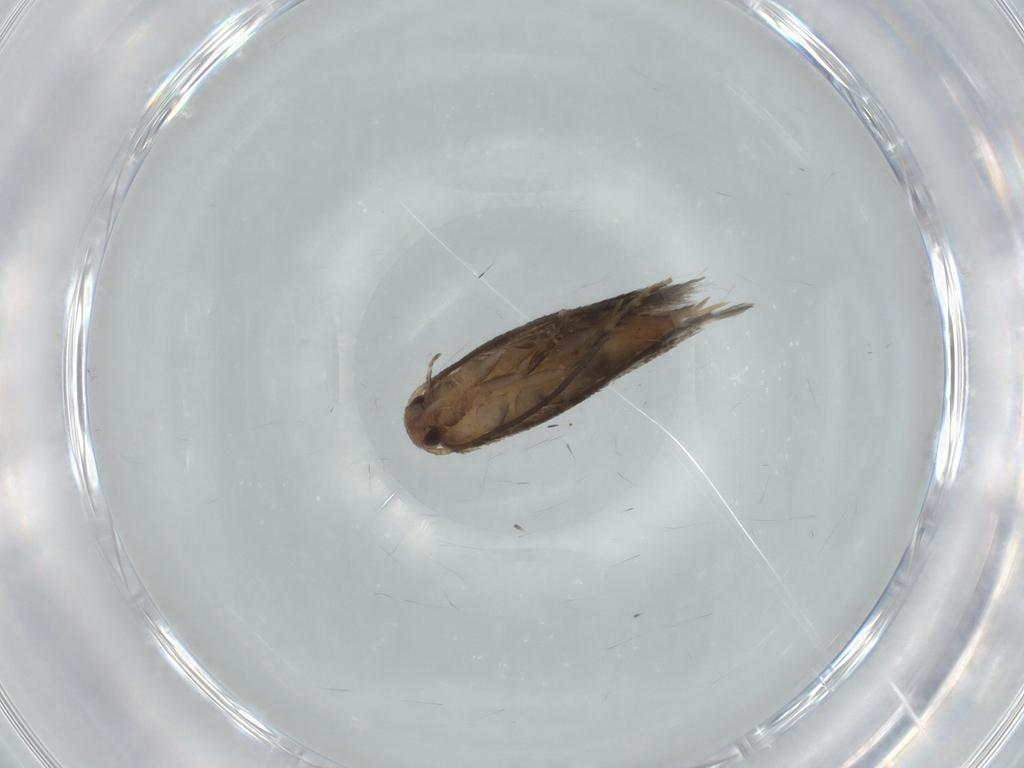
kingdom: Animalia
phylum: Arthropoda
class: Insecta
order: Lepidoptera
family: Elachistidae
